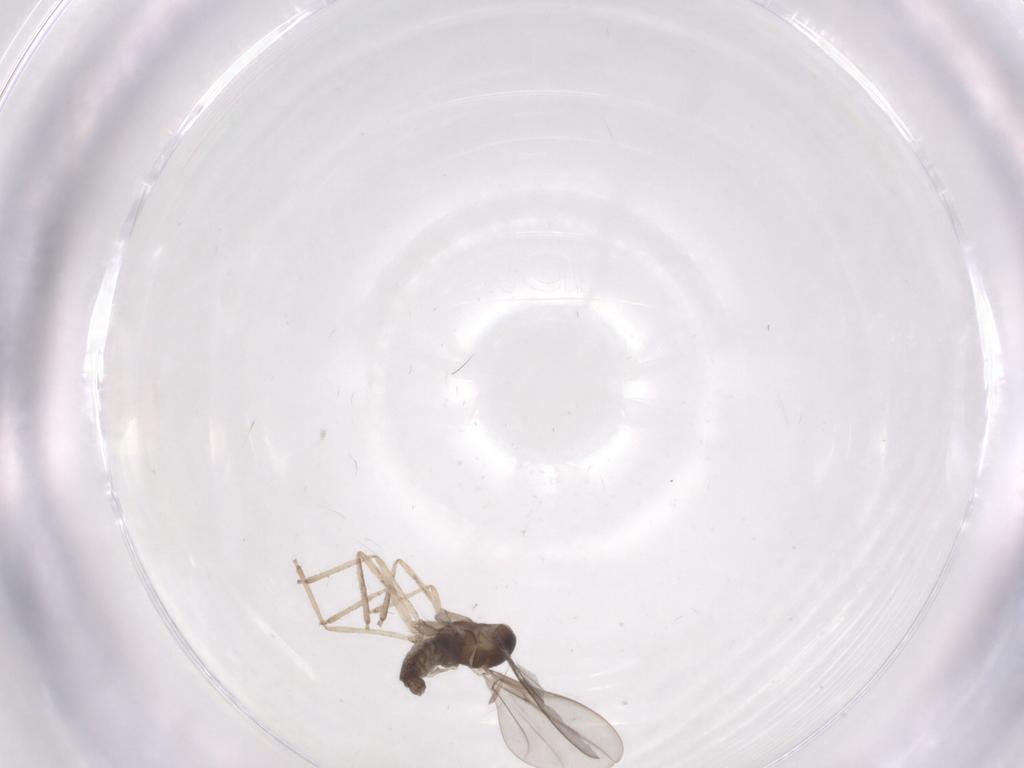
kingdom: Animalia
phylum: Arthropoda
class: Insecta
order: Diptera
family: Cecidomyiidae
